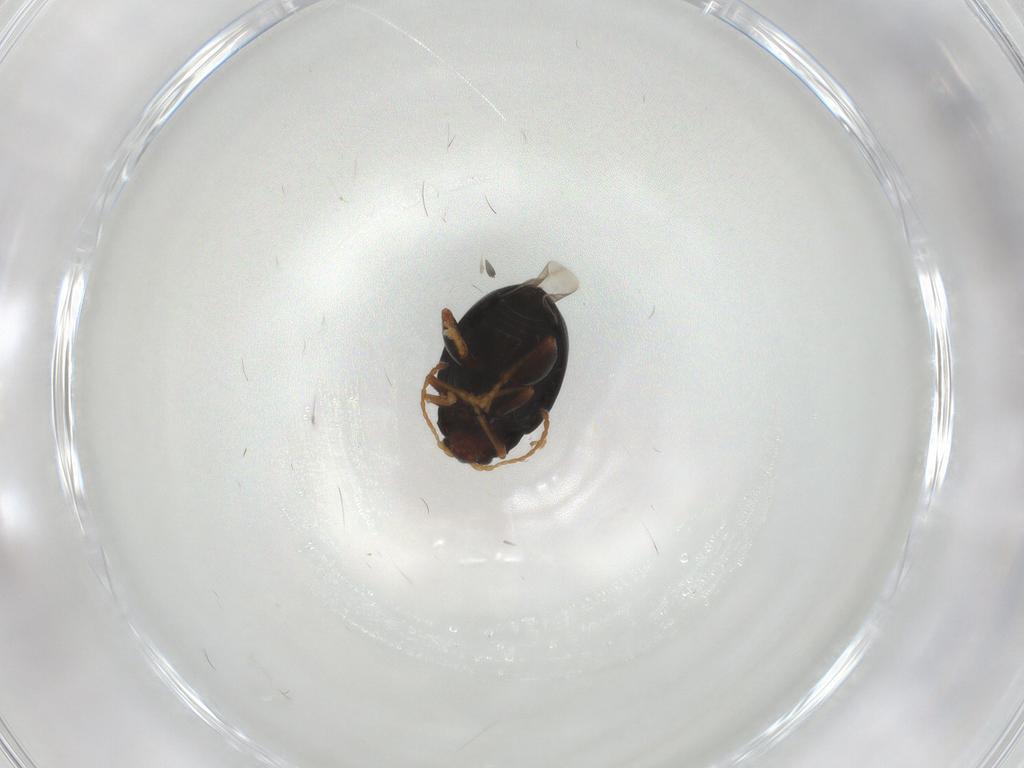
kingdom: Animalia
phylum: Arthropoda
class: Insecta
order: Coleoptera
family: Chrysomelidae
